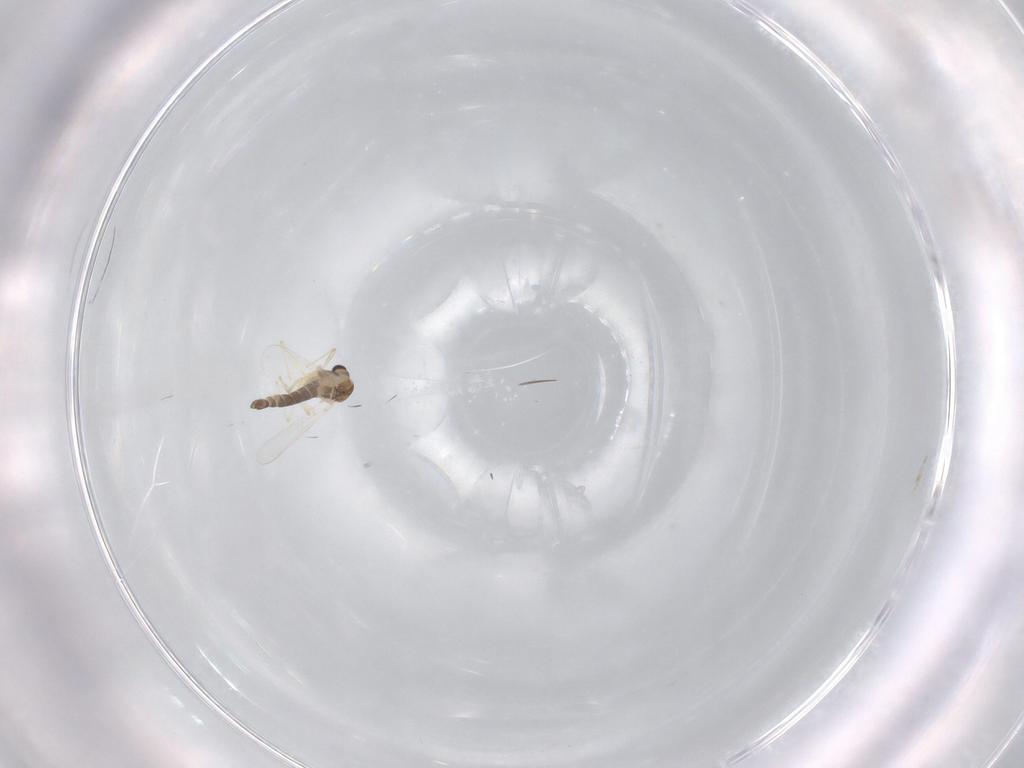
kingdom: Animalia
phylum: Arthropoda
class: Insecta
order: Diptera
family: Chironomidae
